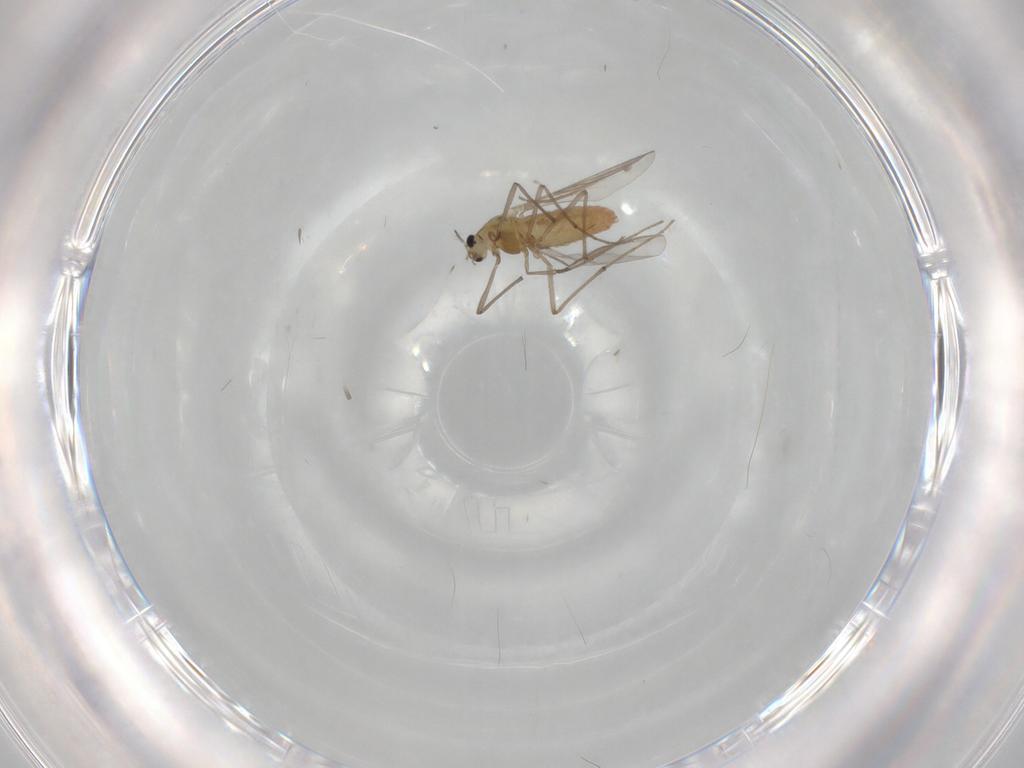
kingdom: Animalia
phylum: Arthropoda
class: Insecta
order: Diptera
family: Chironomidae
